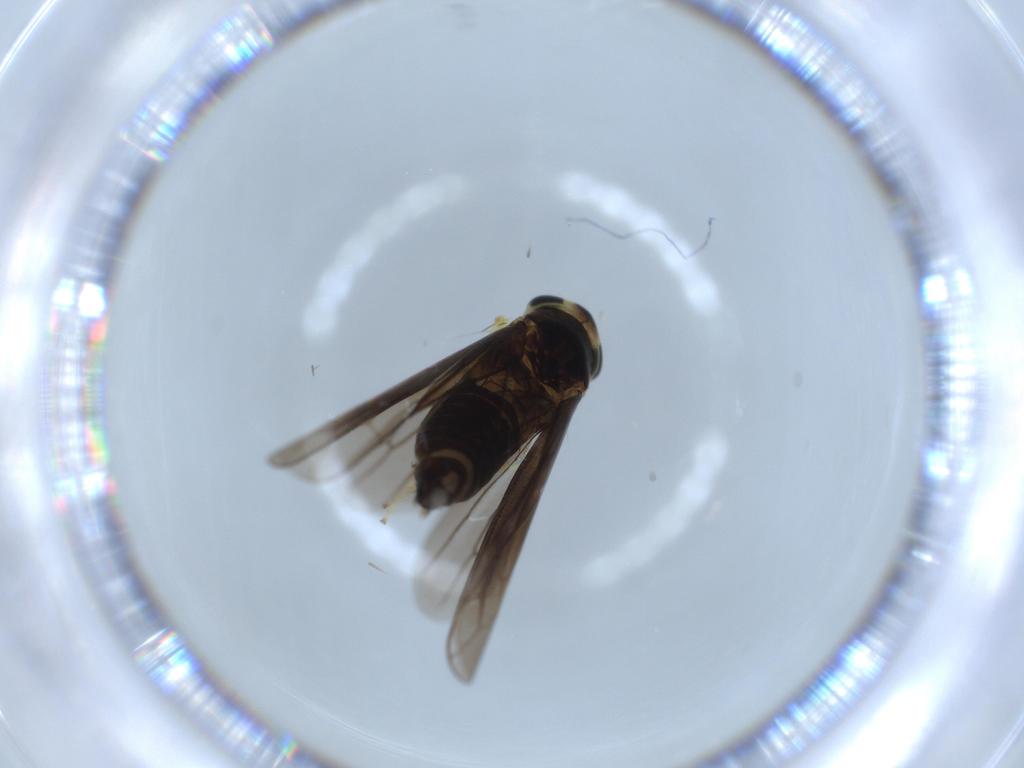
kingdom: Animalia
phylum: Arthropoda
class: Insecta
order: Hemiptera
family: Cicadellidae
